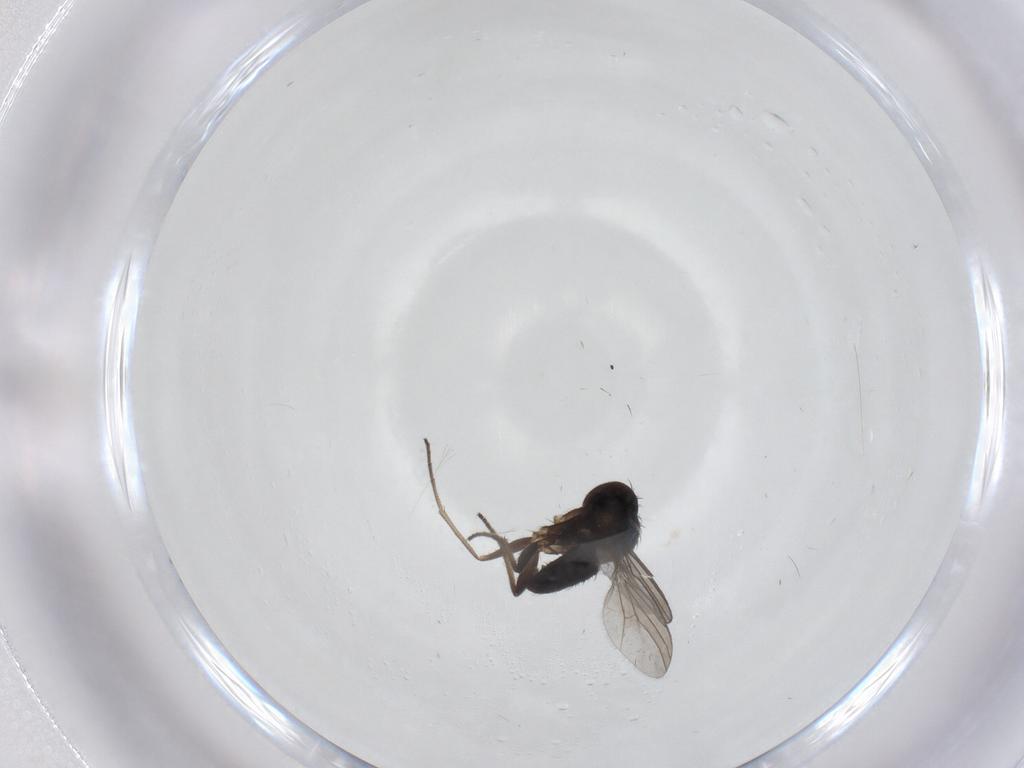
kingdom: Animalia
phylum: Arthropoda
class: Insecta
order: Diptera
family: Dolichopodidae
